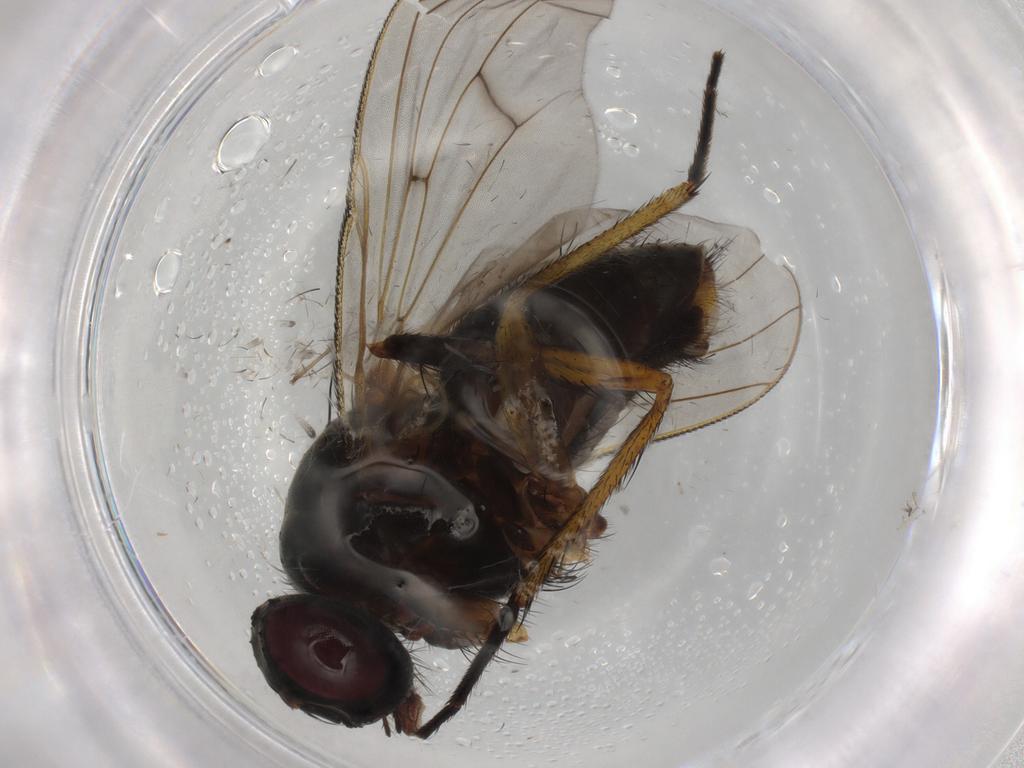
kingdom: Animalia
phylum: Arthropoda
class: Insecta
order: Diptera
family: Muscidae
